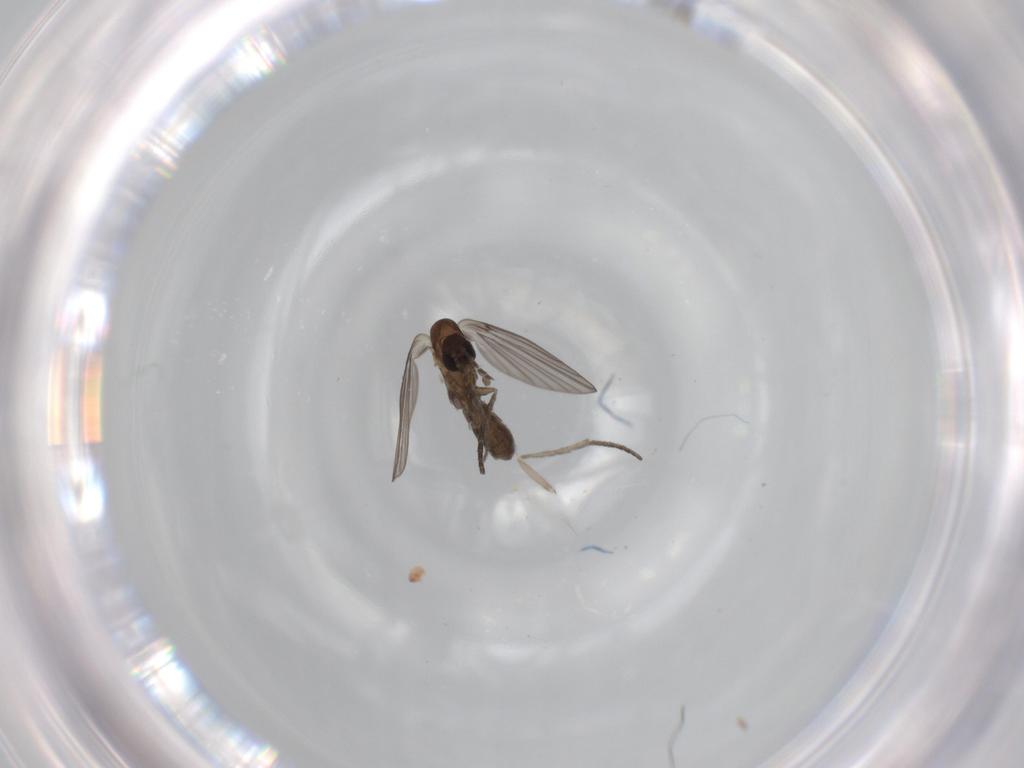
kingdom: Animalia
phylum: Arthropoda
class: Insecta
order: Diptera
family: Psychodidae
